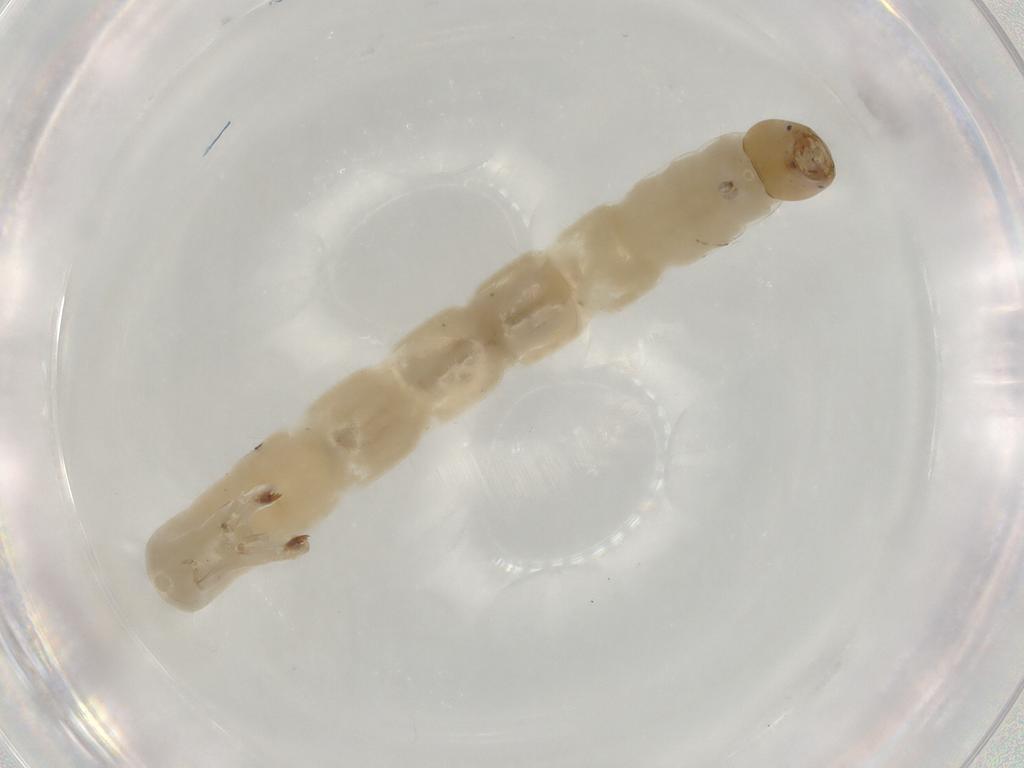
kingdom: Animalia
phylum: Arthropoda
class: Insecta
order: Diptera
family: Chironomidae
